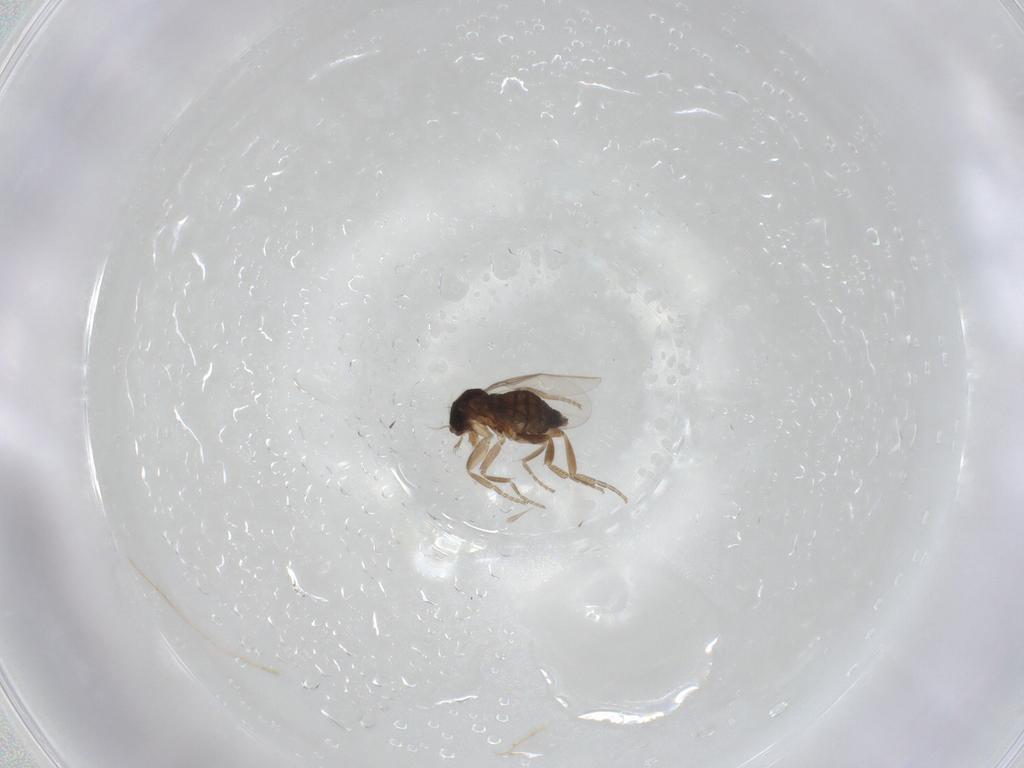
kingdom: Animalia
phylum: Arthropoda
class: Insecta
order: Diptera
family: Phoridae
